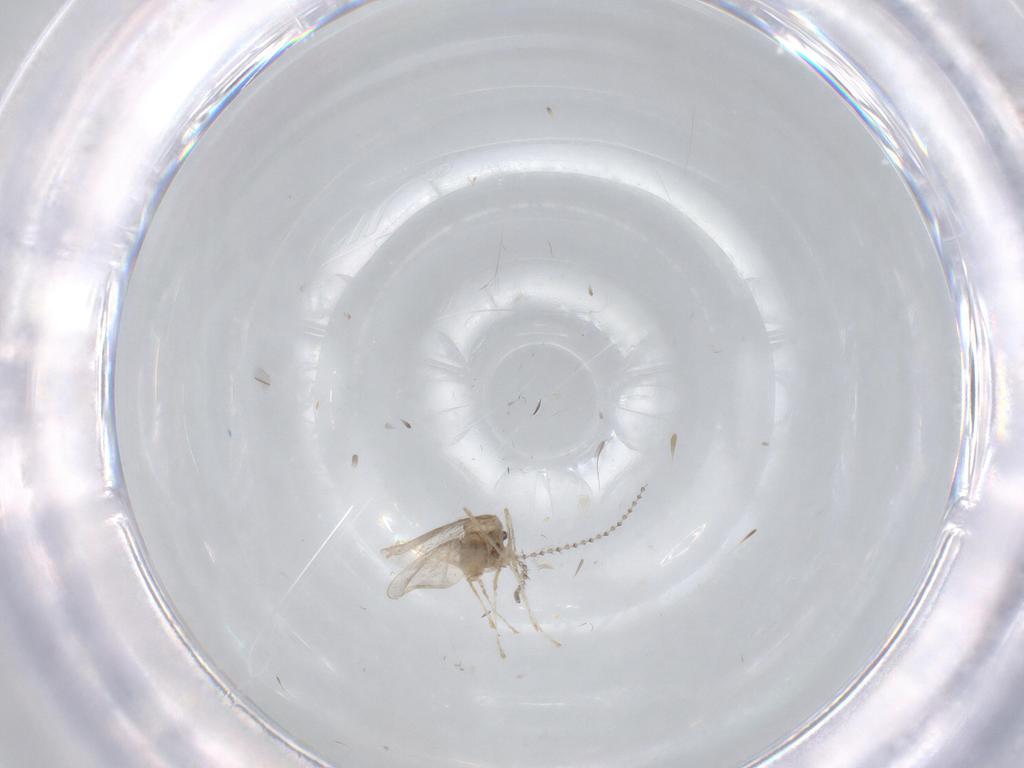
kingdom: Animalia
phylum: Arthropoda
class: Insecta
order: Diptera
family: Cecidomyiidae
